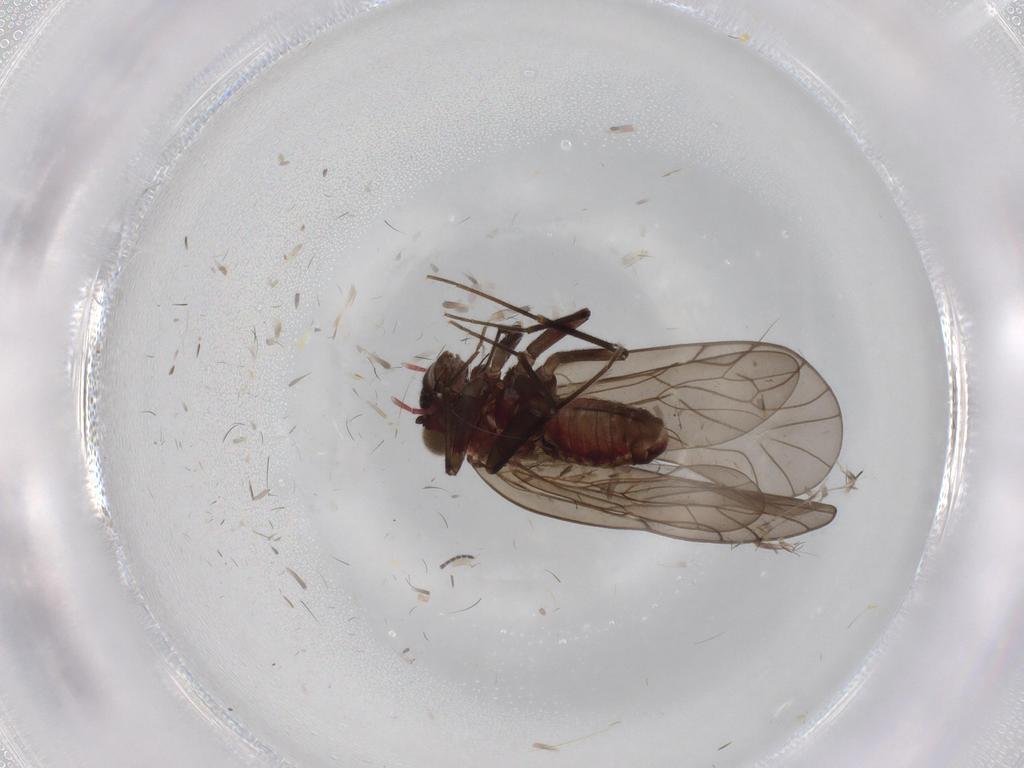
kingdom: Animalia
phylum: Arthropoda
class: Insecta
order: Psocodea
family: Philotarsidae
